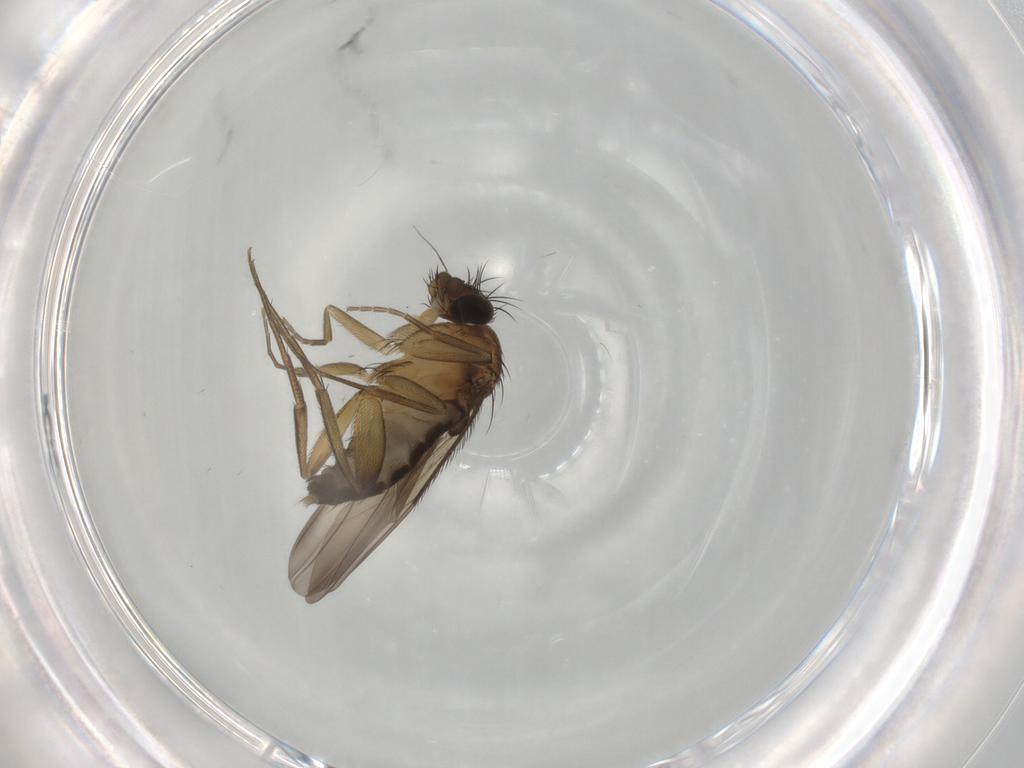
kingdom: Animalia
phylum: Arthropoda
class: Insecta
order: Diptera
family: Phoridae
